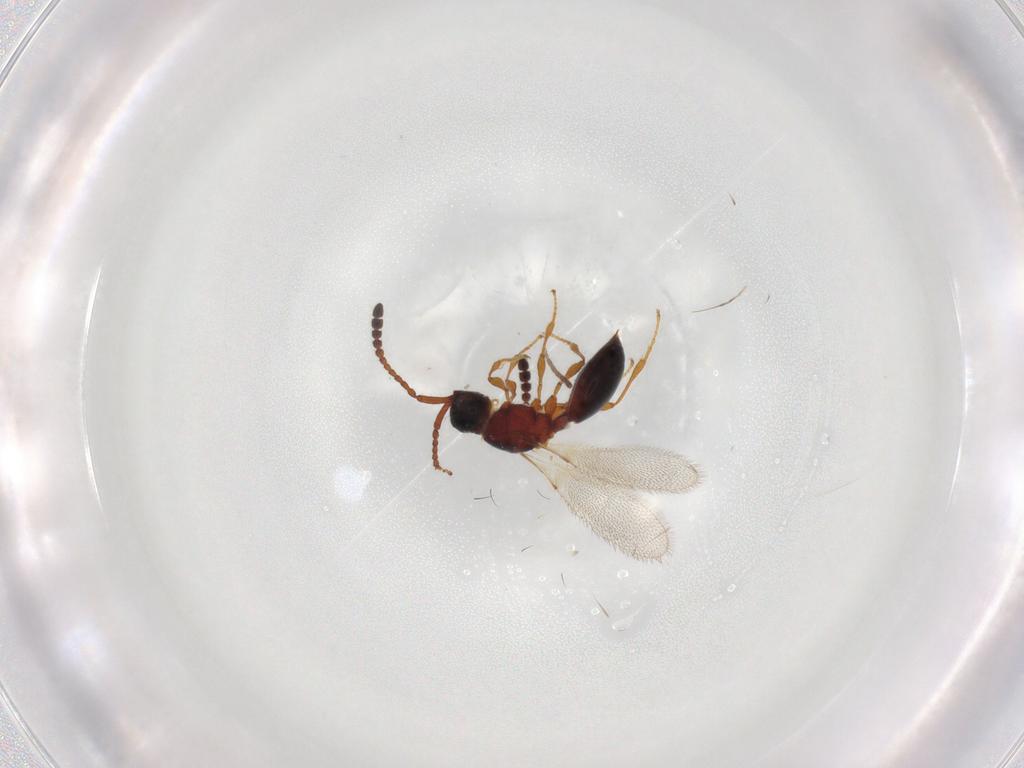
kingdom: Animalia
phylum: Arthropoda
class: Insecta
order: Hymenoptera
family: Diapriidae
